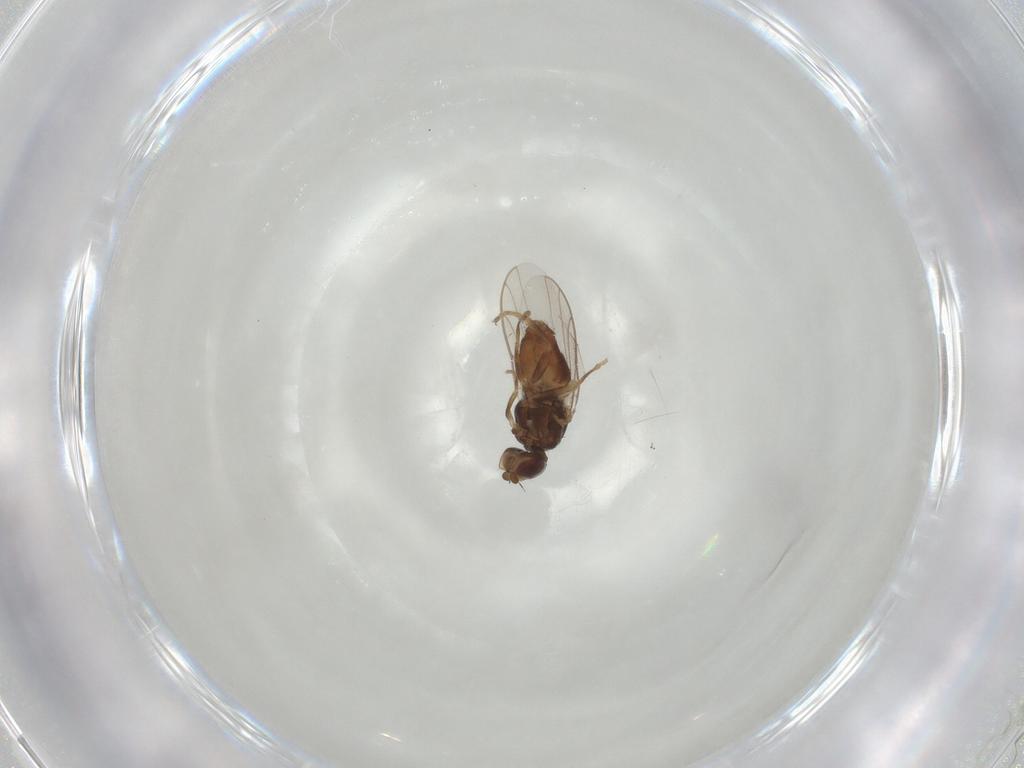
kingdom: Animalia
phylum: Arthropoda
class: Insecta
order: Diptera
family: Chloropidae
